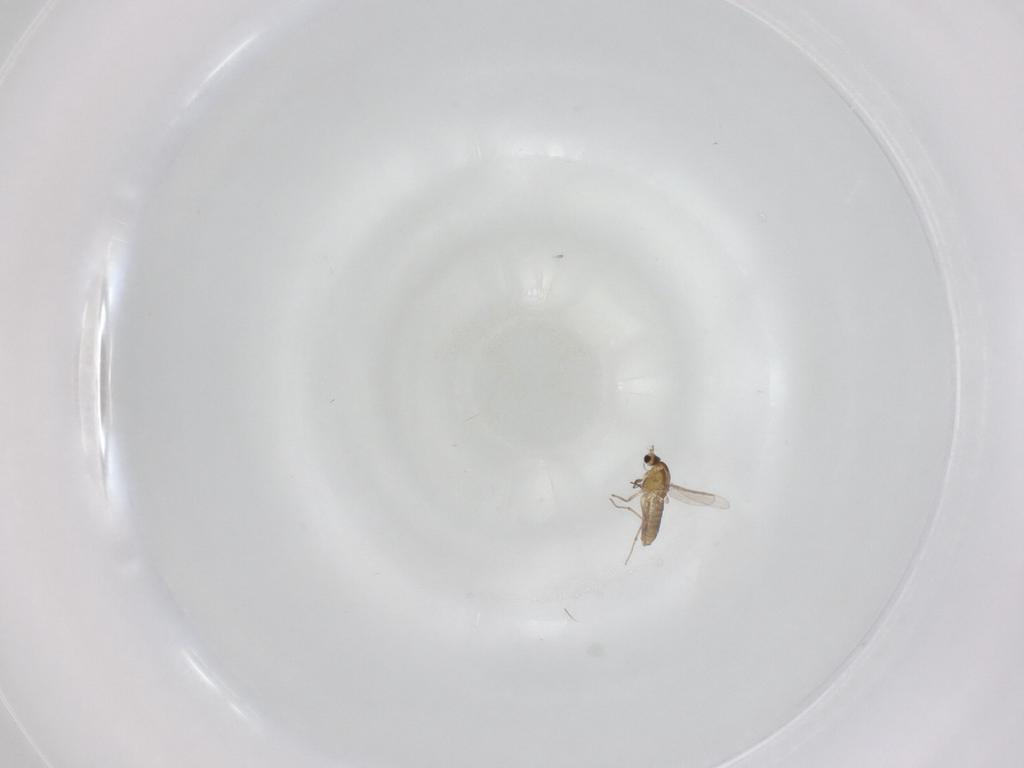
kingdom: Animalia
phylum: Arthropoda
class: Insecta
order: Diptera
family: Chironomidae
